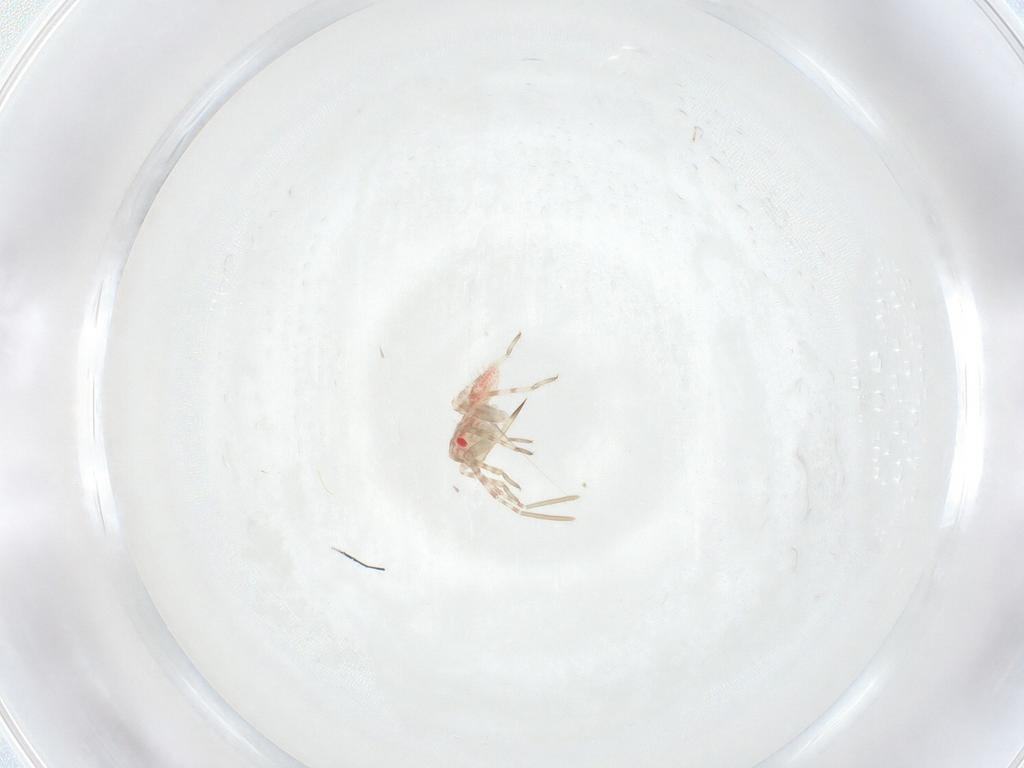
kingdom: Animalia
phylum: Arthropoda
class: Insecta
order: Hemiptera
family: Miridae
